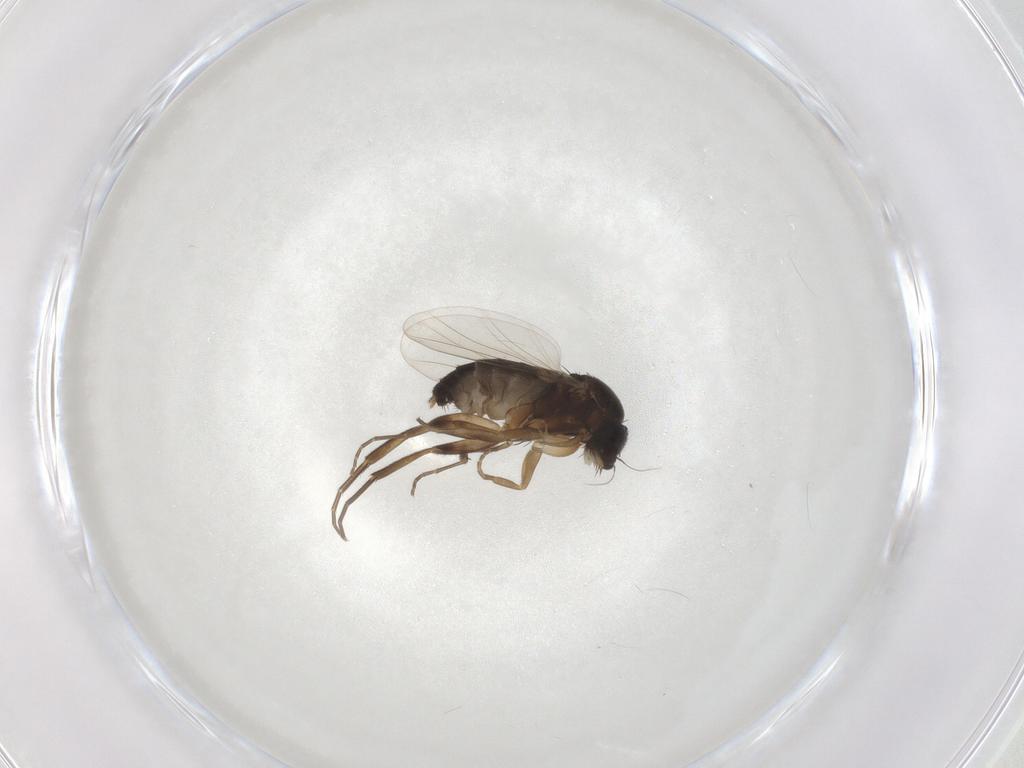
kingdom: Animalia
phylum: Arthropoda
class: Insecta
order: Diptera
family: Phoridae
